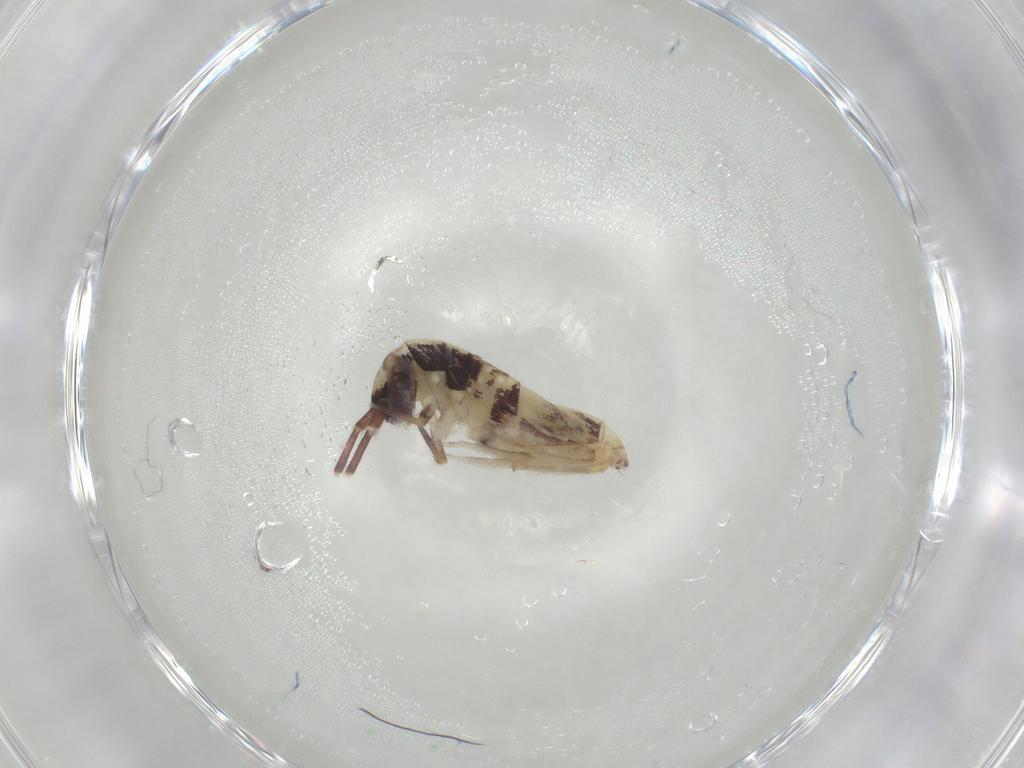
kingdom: Animalia
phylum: Arthropoda
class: Collembola
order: Entomobryomorpha
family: Entomobryidae
